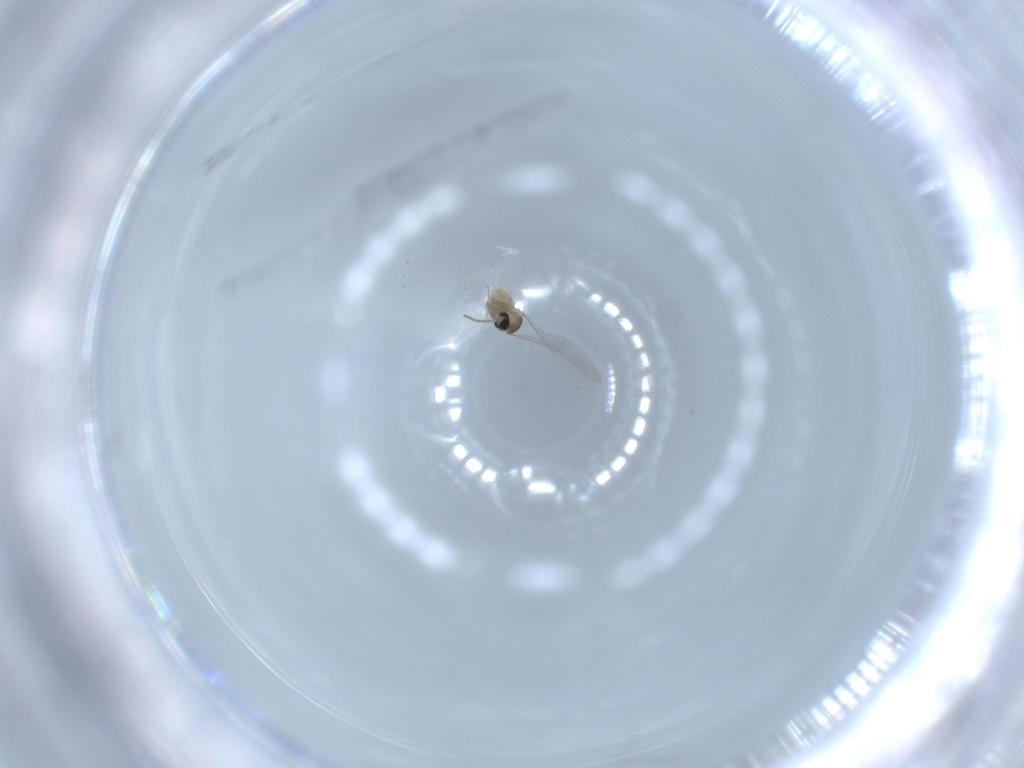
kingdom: Animalia
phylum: Arthropoda
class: Insecta
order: Diptera
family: Cecidomyiidae
